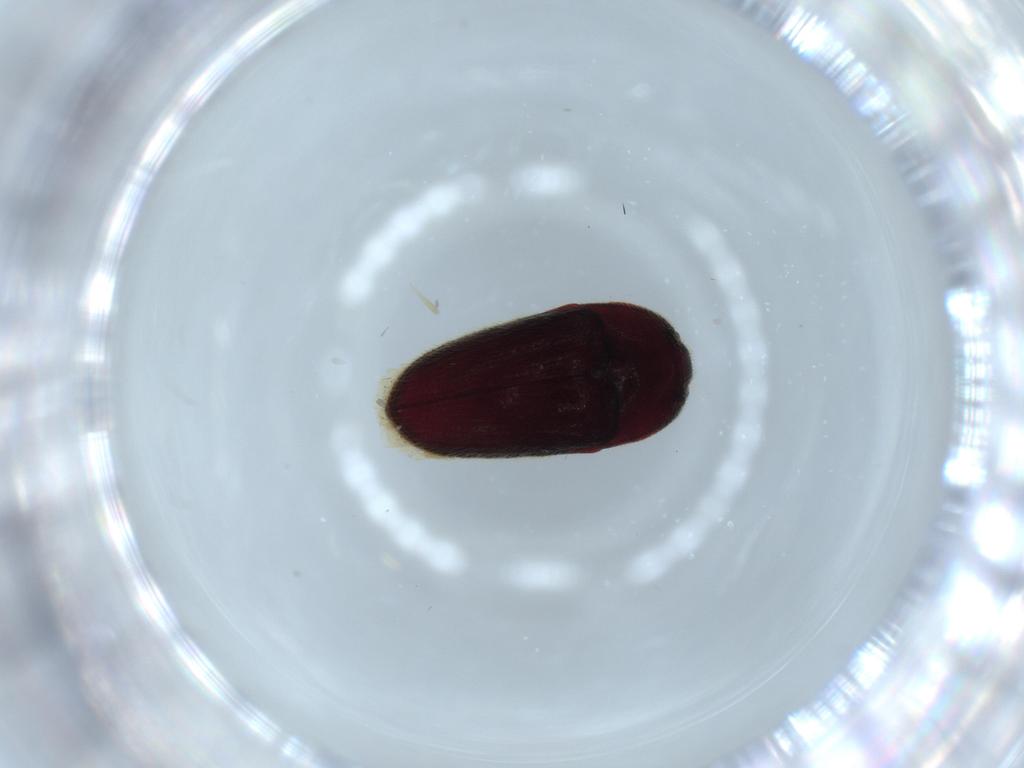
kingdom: Animalia
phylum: Arthropoda
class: Insecta
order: Coleoptera
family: Throscidae
